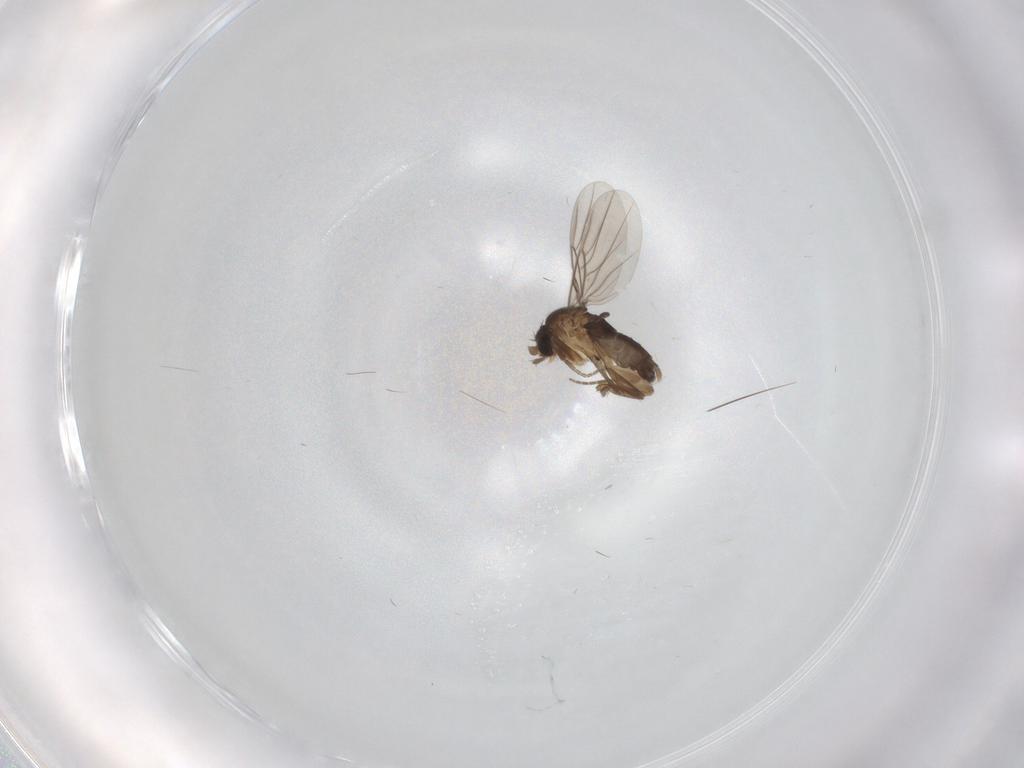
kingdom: Animalia
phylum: Arthropoda
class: Insecta
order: Diptera
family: Phoridae
